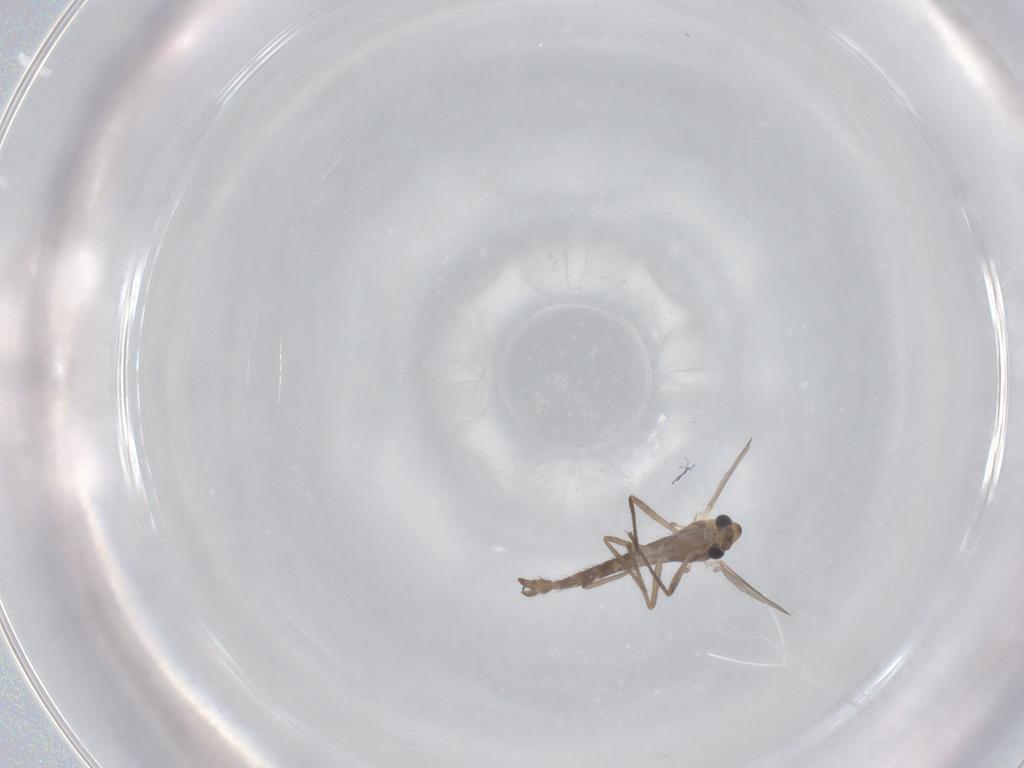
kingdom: Animalia
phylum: Arthropoda
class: Insecta
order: Diptera
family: Chironomidae
